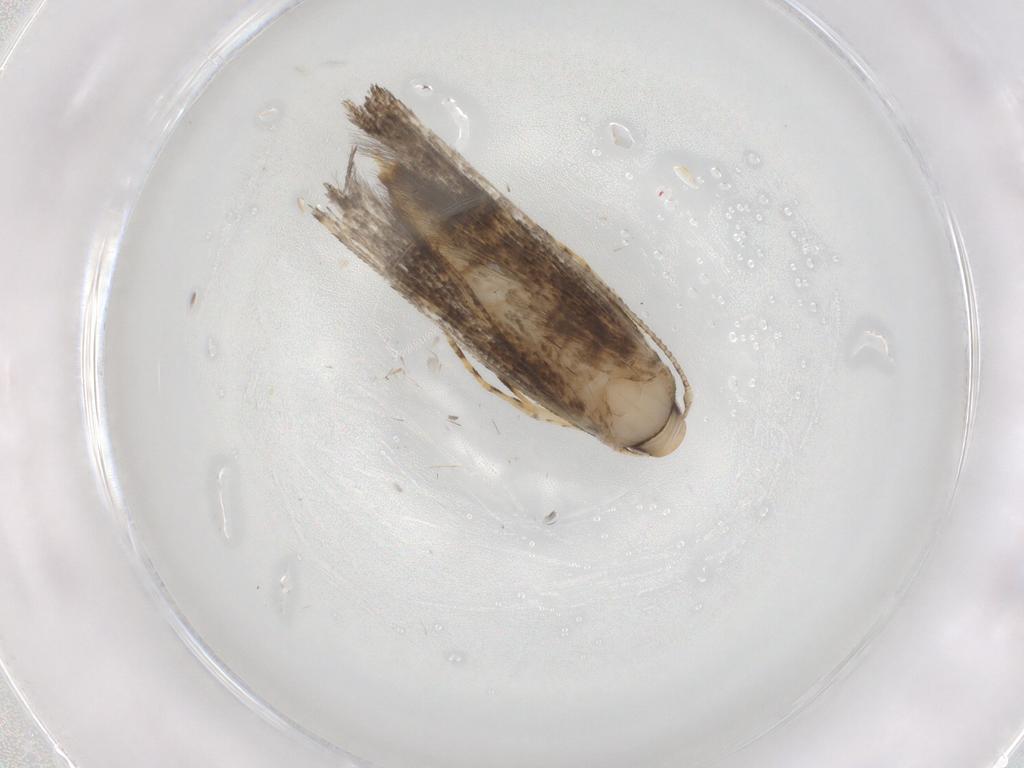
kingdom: Animalia
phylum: Arthropoda
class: Insecta
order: Lepidoptera
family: Cosmopterigidae
